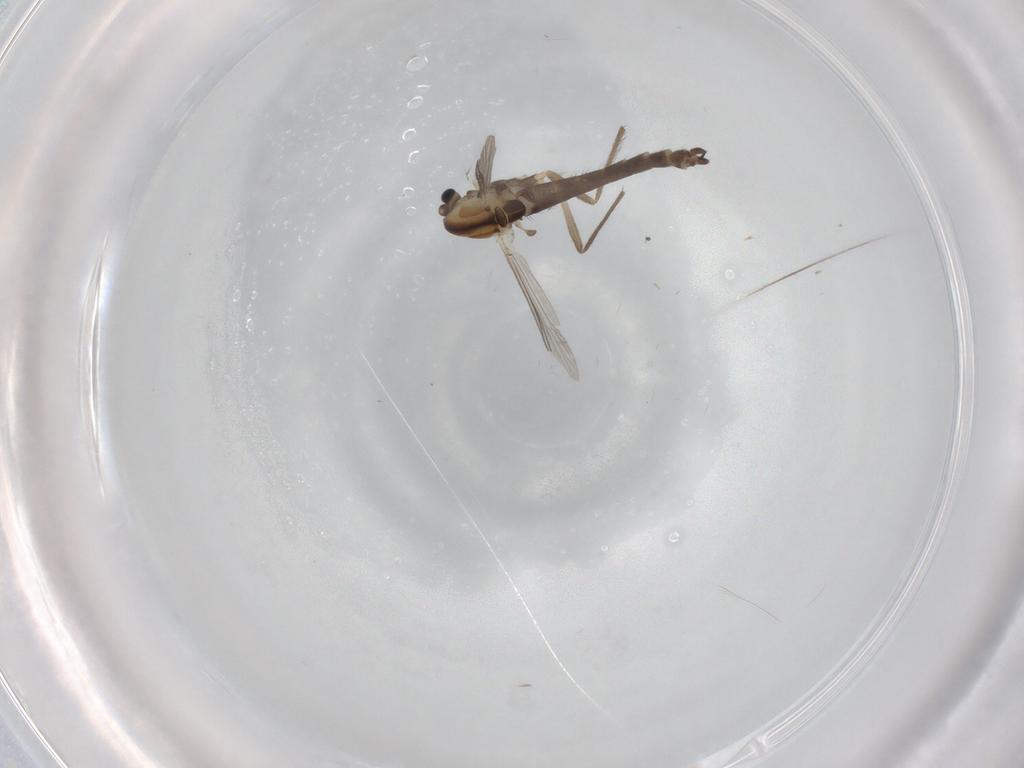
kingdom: Animalia
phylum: Arthropoda
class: Insecta
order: Diptera
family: Chironomidae
